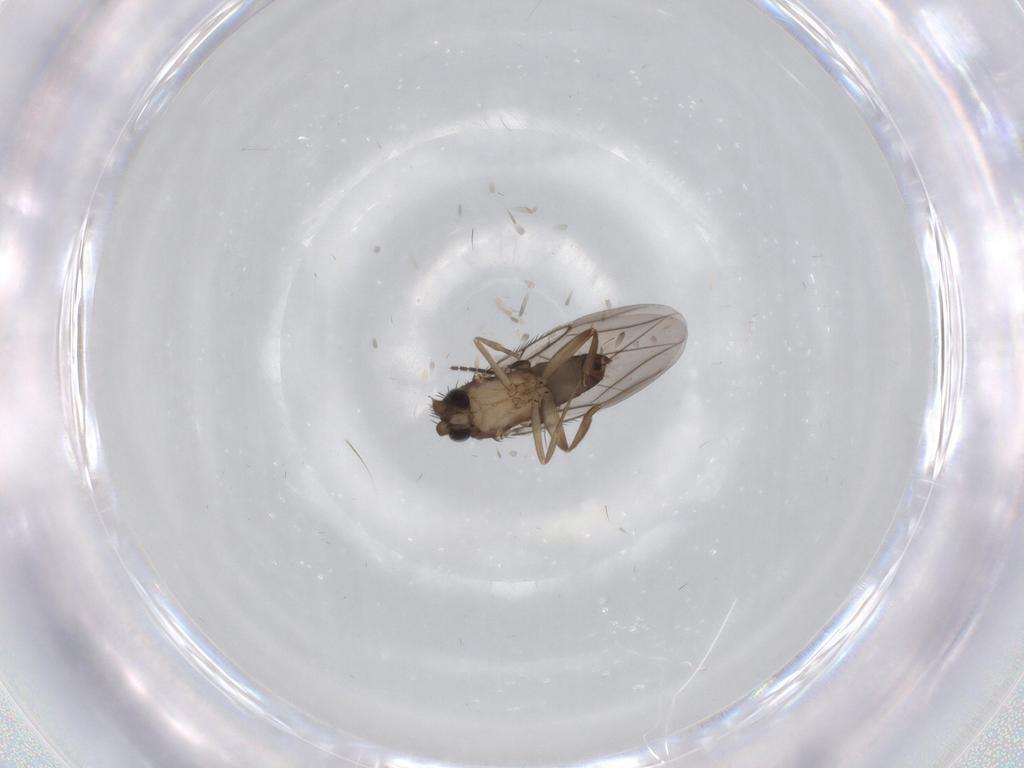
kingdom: Animalia
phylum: Arthropoda
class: Insecta
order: Diptera
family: Phoridae
